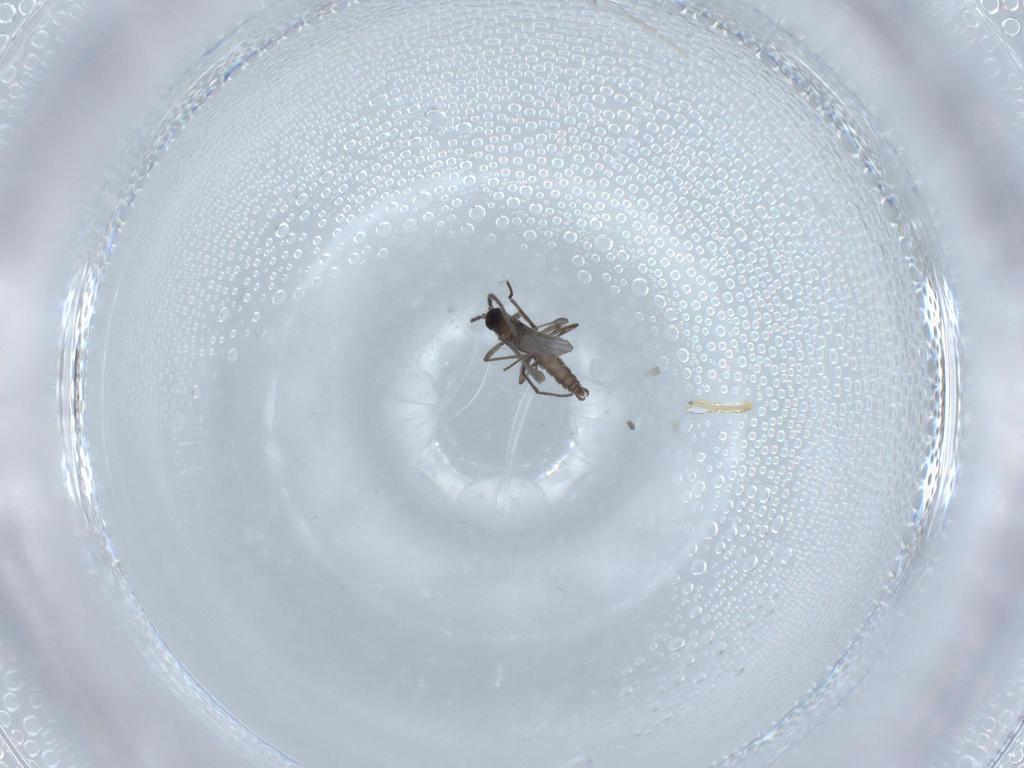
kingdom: Animalia
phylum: Arthropoda
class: Insecta
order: Diptera
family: Sciaridae
